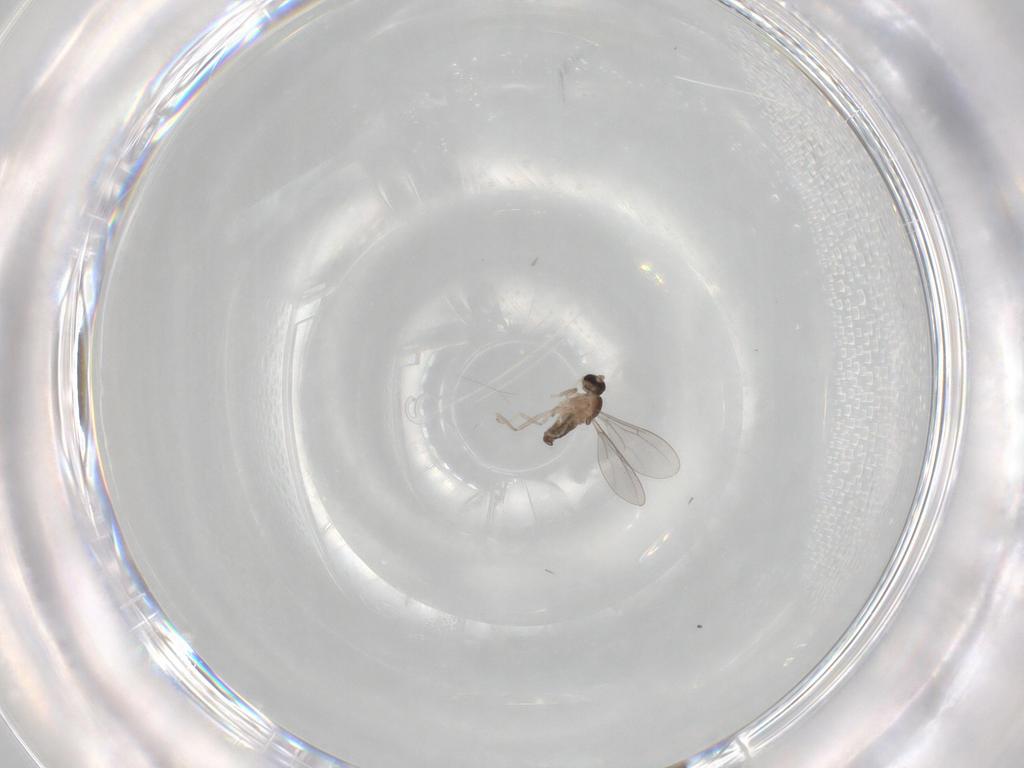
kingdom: Animalia
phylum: Arthropoda
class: Insecta
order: Diptera
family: Cecidomyiidae
